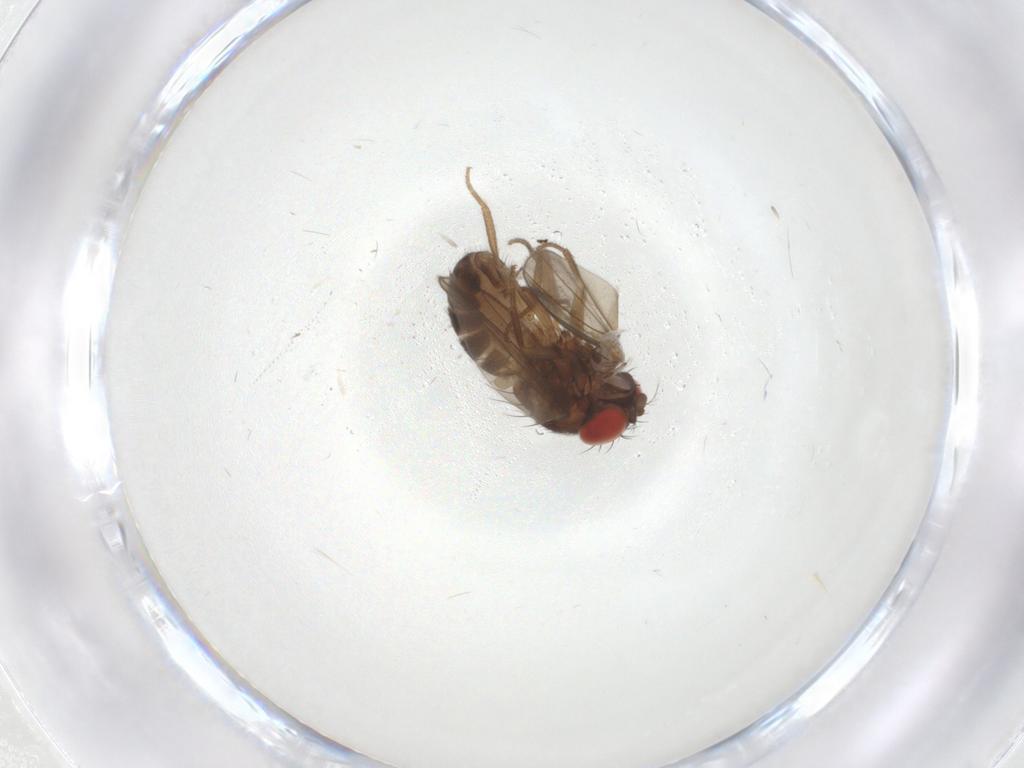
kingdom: Animalia
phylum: Arthropoda
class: Insecta
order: Diptera
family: Drosophilidae
